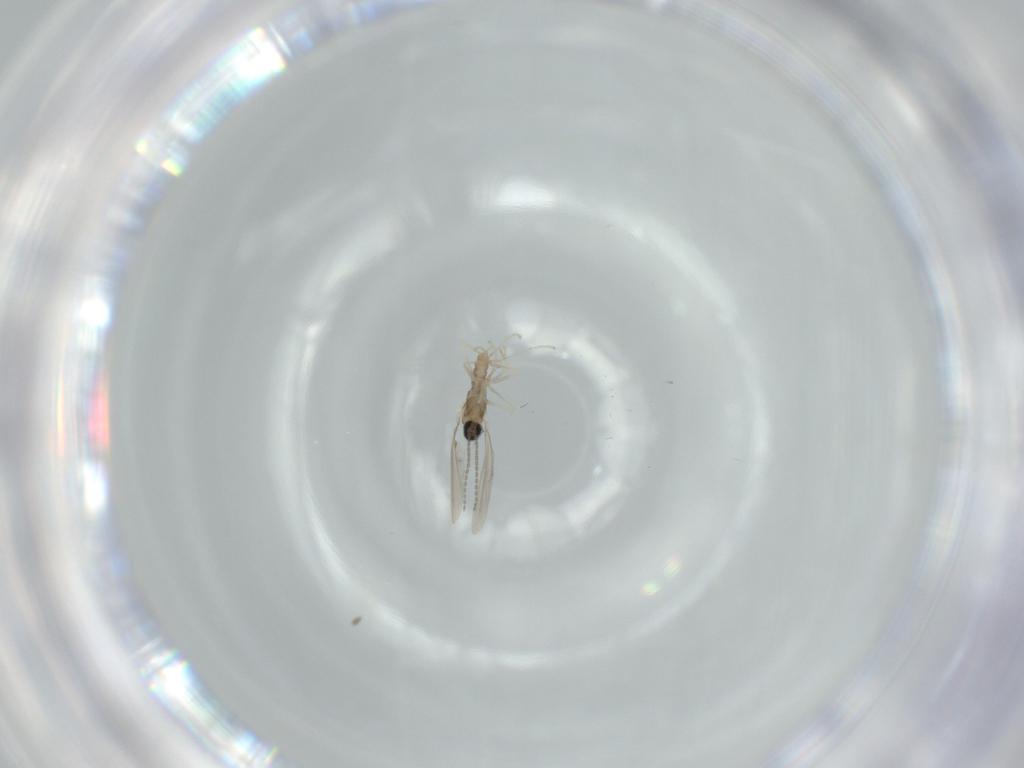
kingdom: Animalia
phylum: Arthropoda
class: Insecta
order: Diptera
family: Cecidomyiidae
